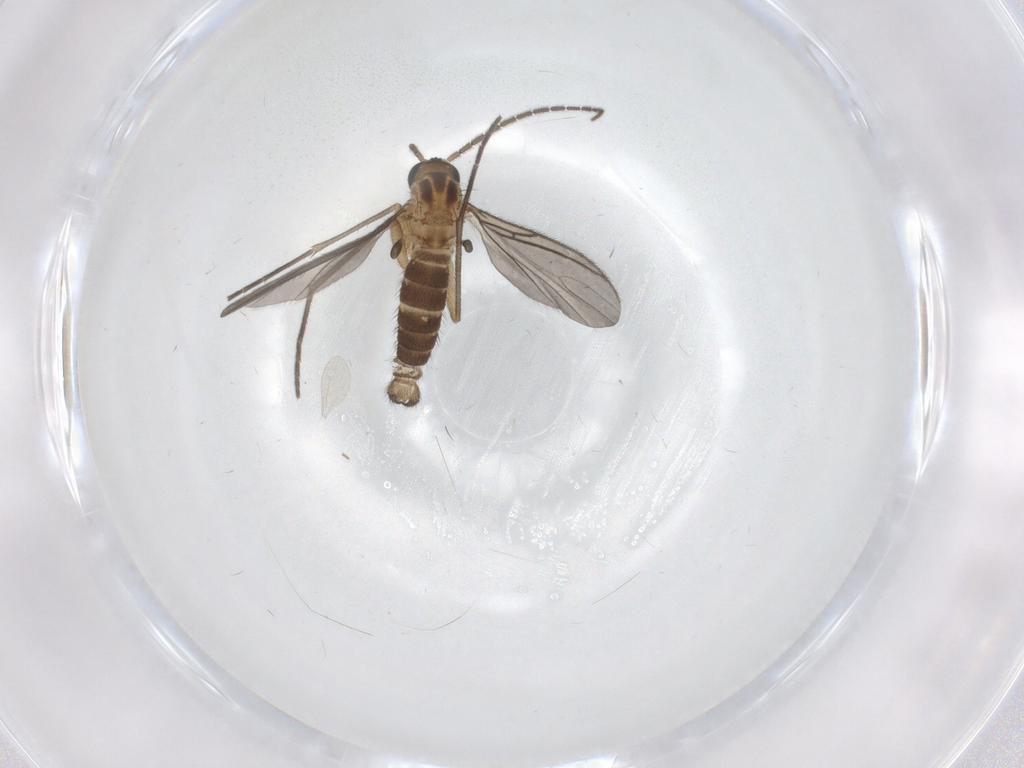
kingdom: Animalia
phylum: Arthropoda
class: Insecta
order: Diptera
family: Sciaridae
